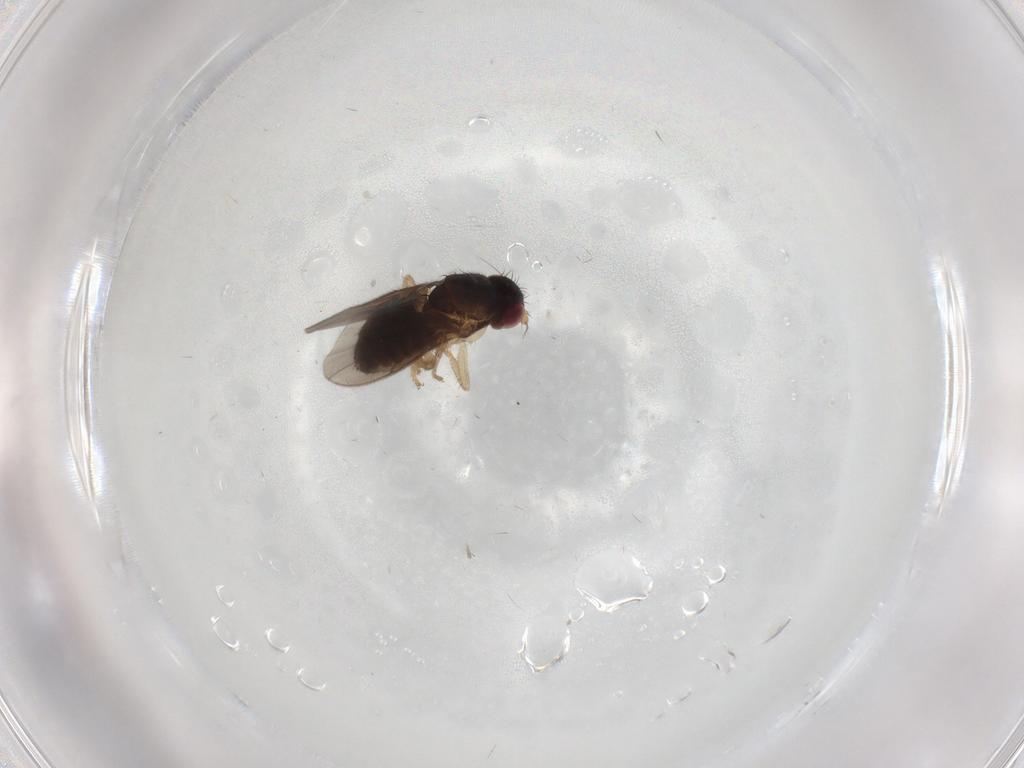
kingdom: Animalia
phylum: Arthropoda
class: Insecta
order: Diptera
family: Sphaeroceridae
